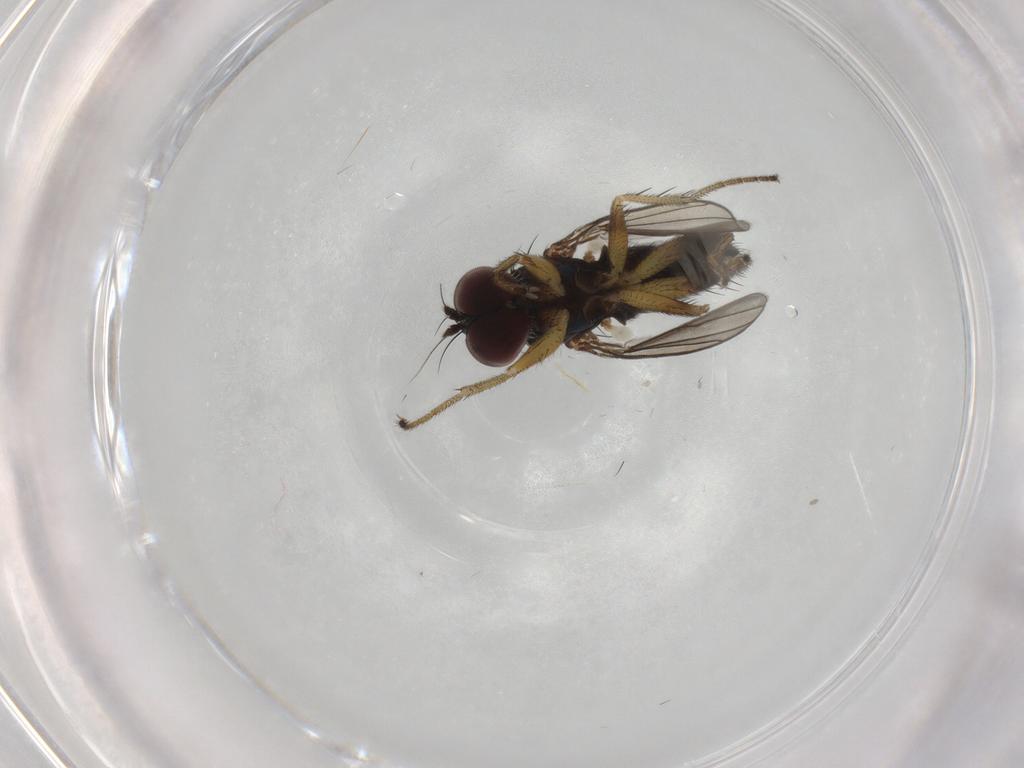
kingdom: Animalia
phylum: Arthropoda
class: Insecta
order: Diptera
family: Dolichopodidae
